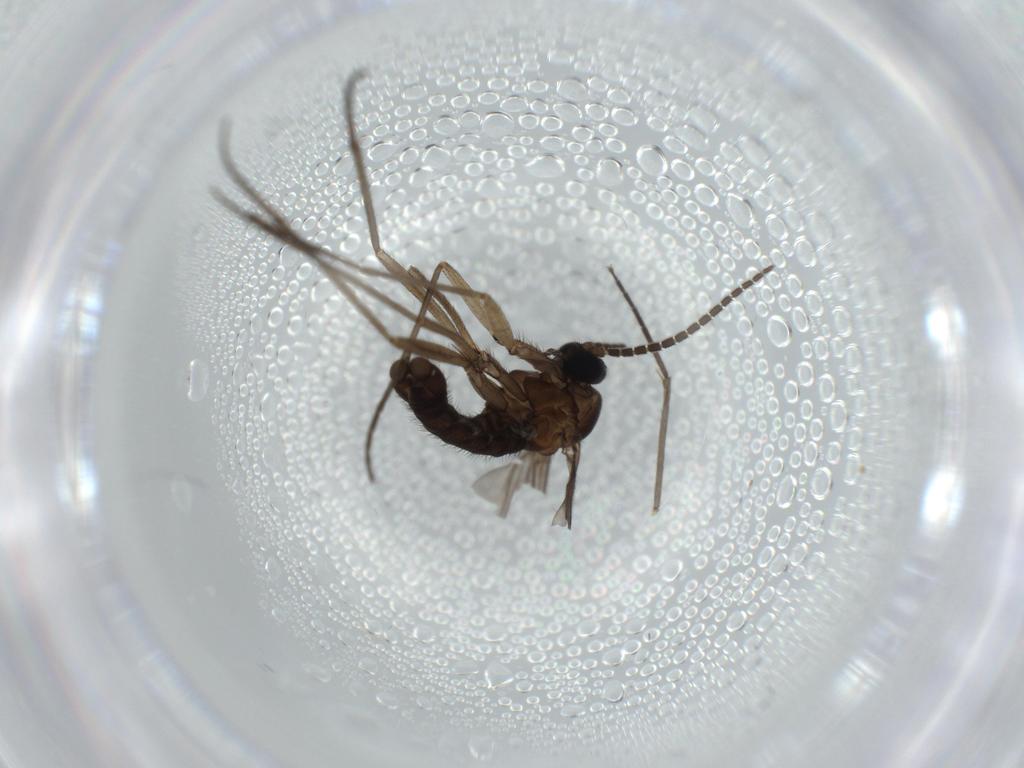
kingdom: Animalia
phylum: Arthropoda
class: Insecta
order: Diptera
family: Sciaridae
